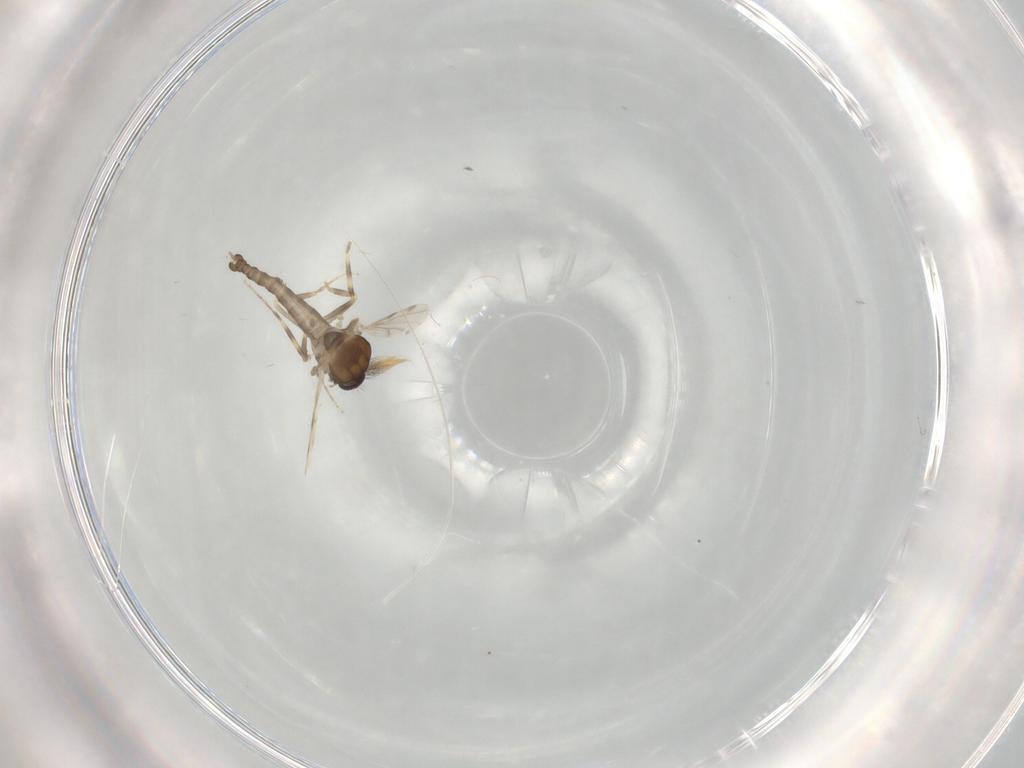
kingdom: Animalia
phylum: Arthropoda
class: Insecta
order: Diptera
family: Ceratopogonidae
